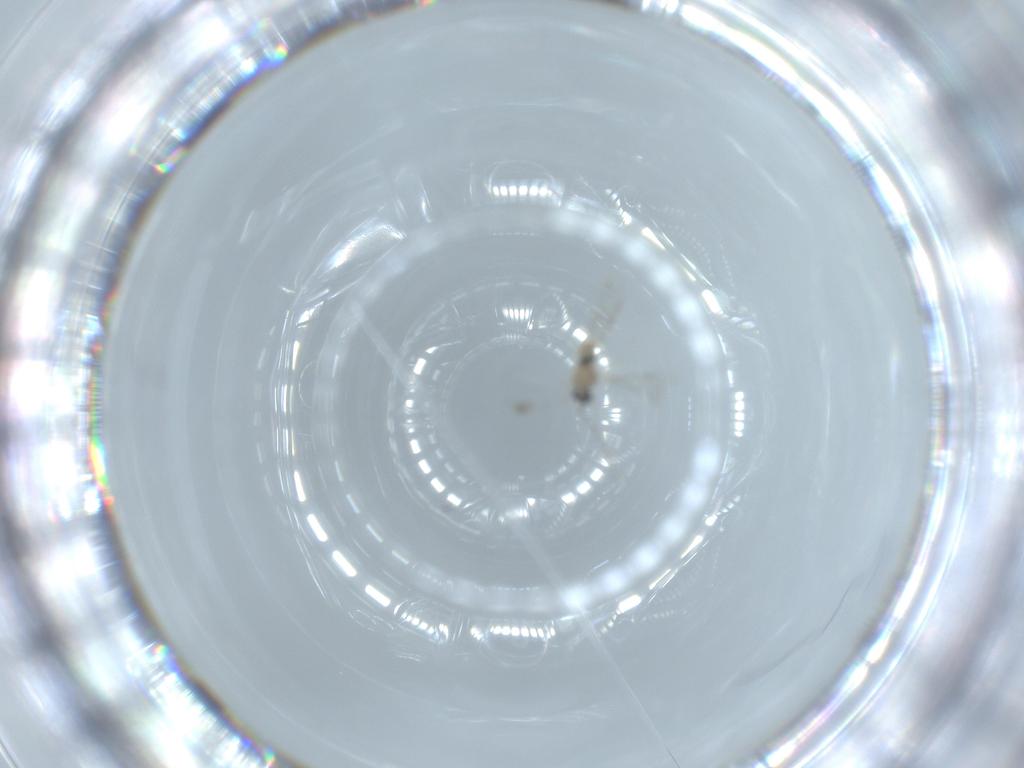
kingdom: Animalia
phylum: Arthropoda
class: Insecta
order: Diptera
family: Cecidomyiidae
